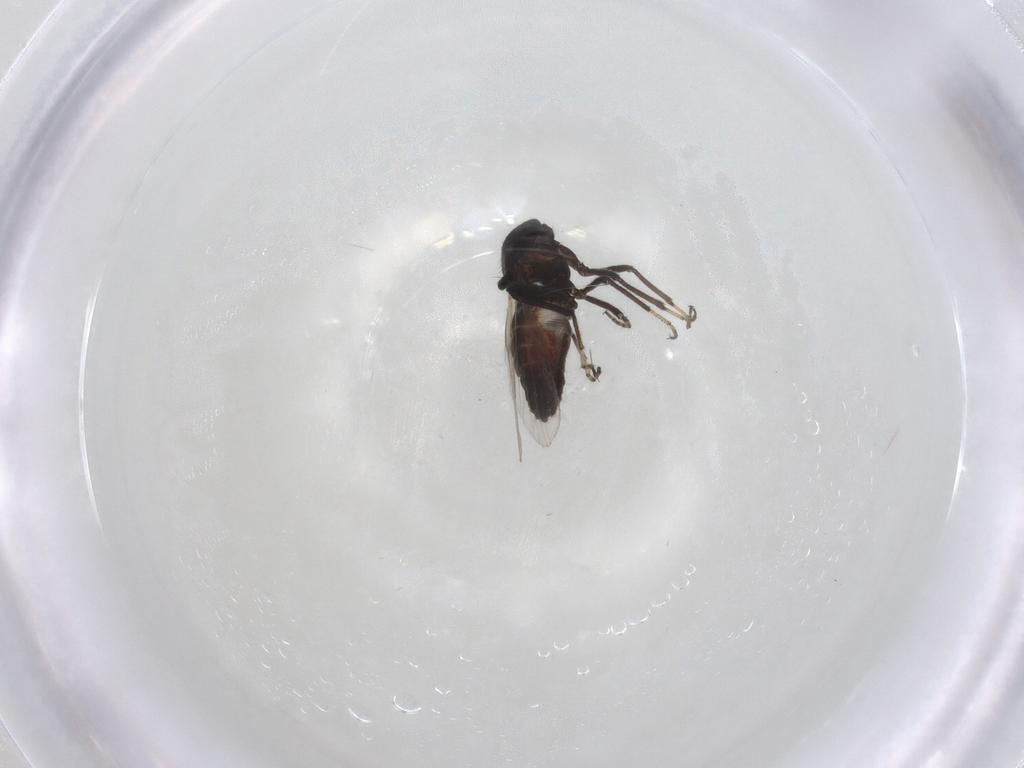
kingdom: Animalia
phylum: Arthropoda
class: Insecta
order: Diptera
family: Ceratopogonidae
